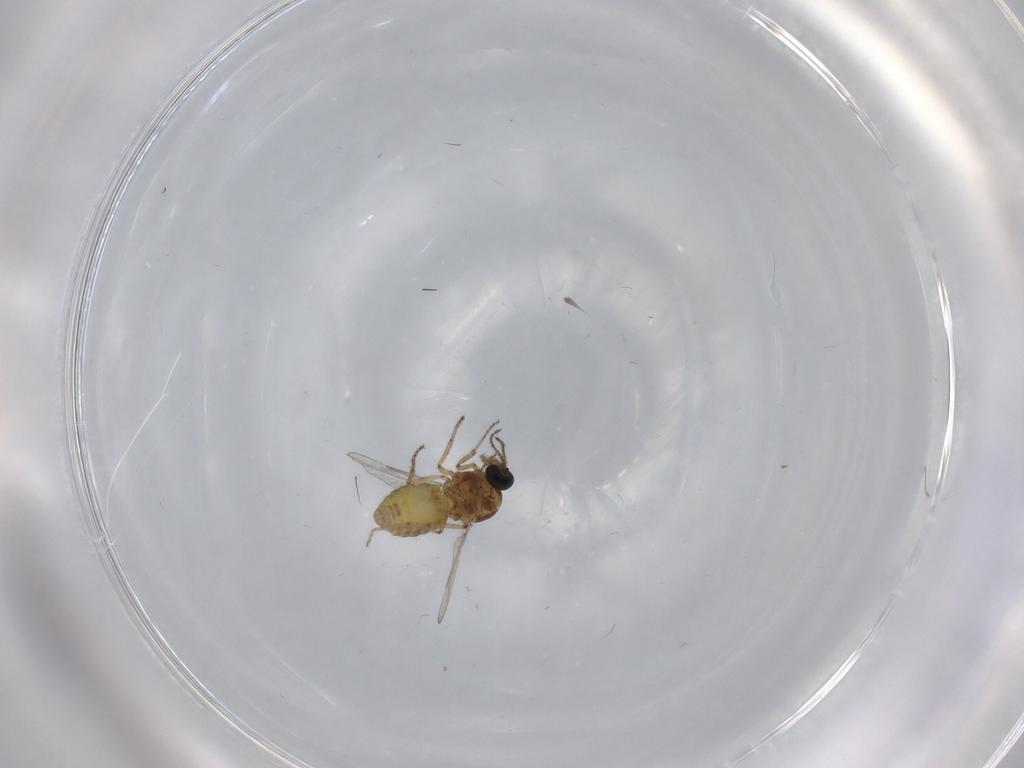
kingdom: Animalia
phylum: Arthropoda
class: Insecta
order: Diptera
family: Ceratopogonidae
